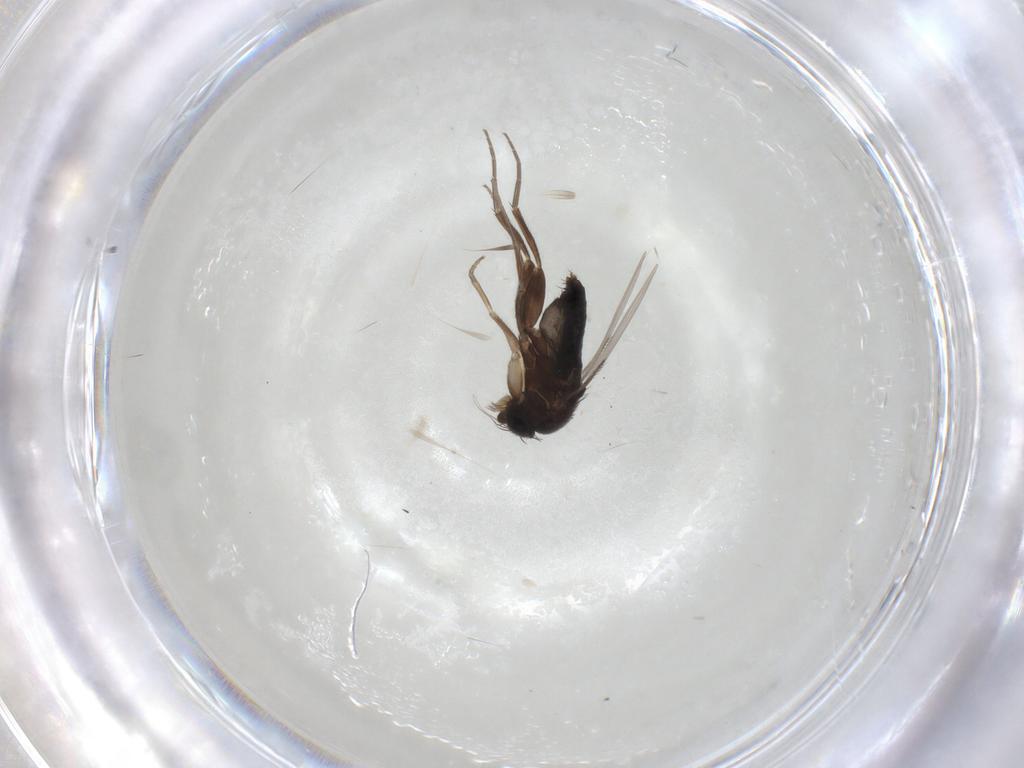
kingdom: Animalia
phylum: Arthropoda
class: Insecta
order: Diptera
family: Phoridae
